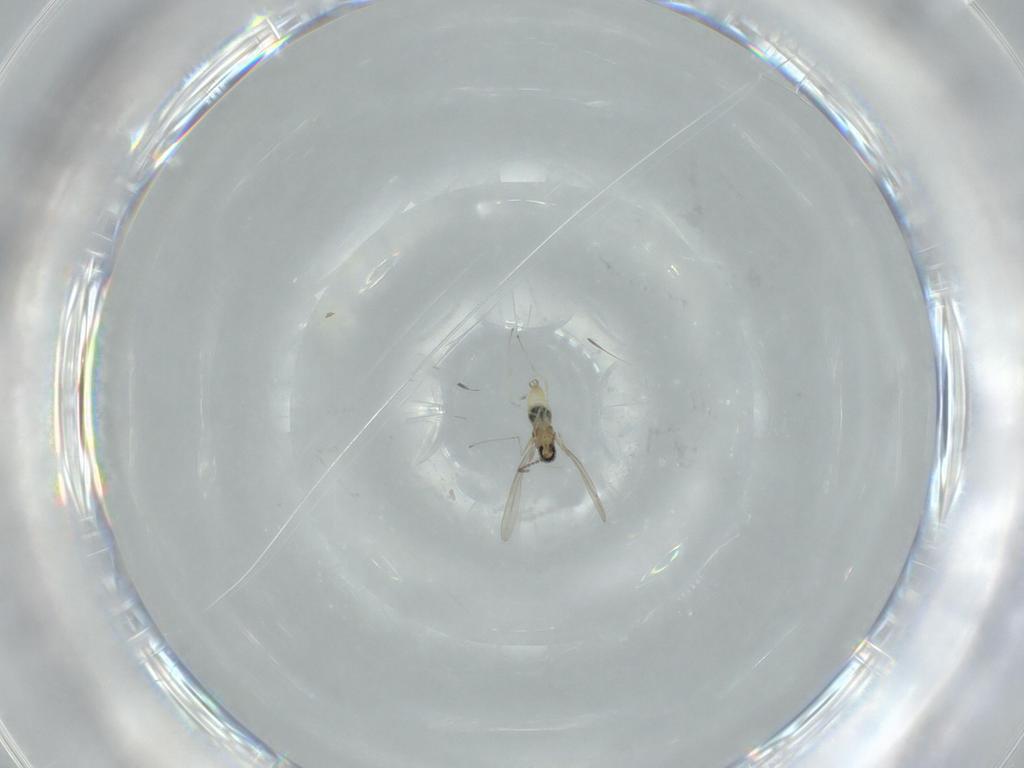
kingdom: Animalia
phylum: Arthropoda
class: Insecta
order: Diptera
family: Cecidomyiidae
